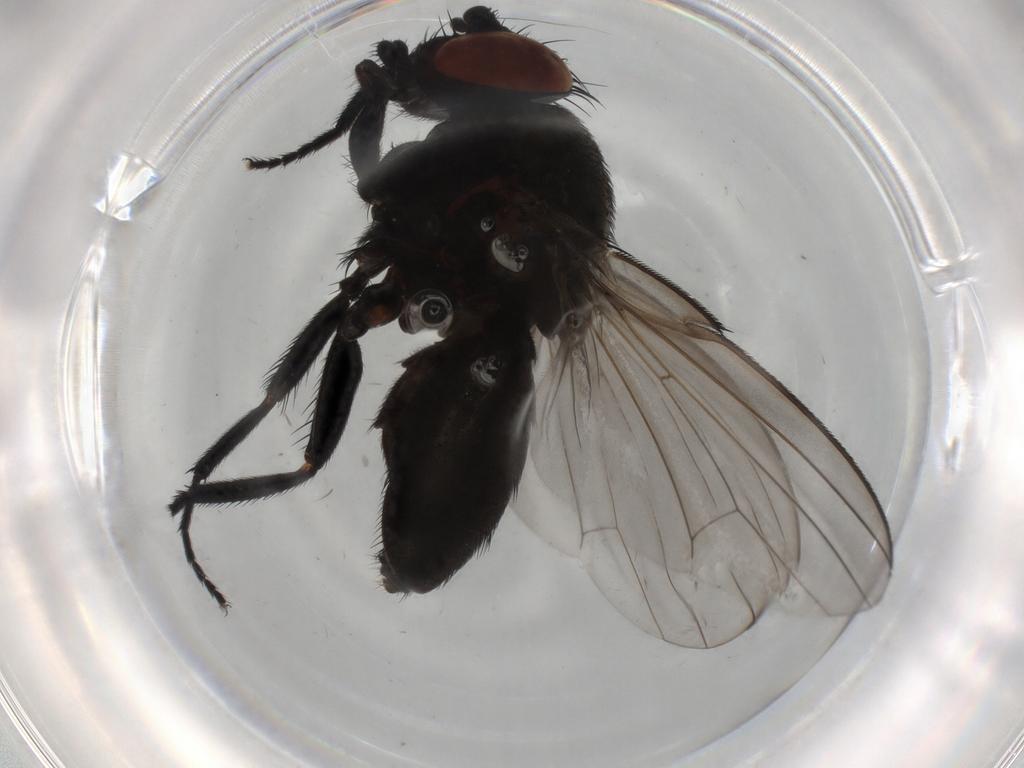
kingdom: Animalia
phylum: Arthropoda
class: Insecta
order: Diptera
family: Milichiidae
